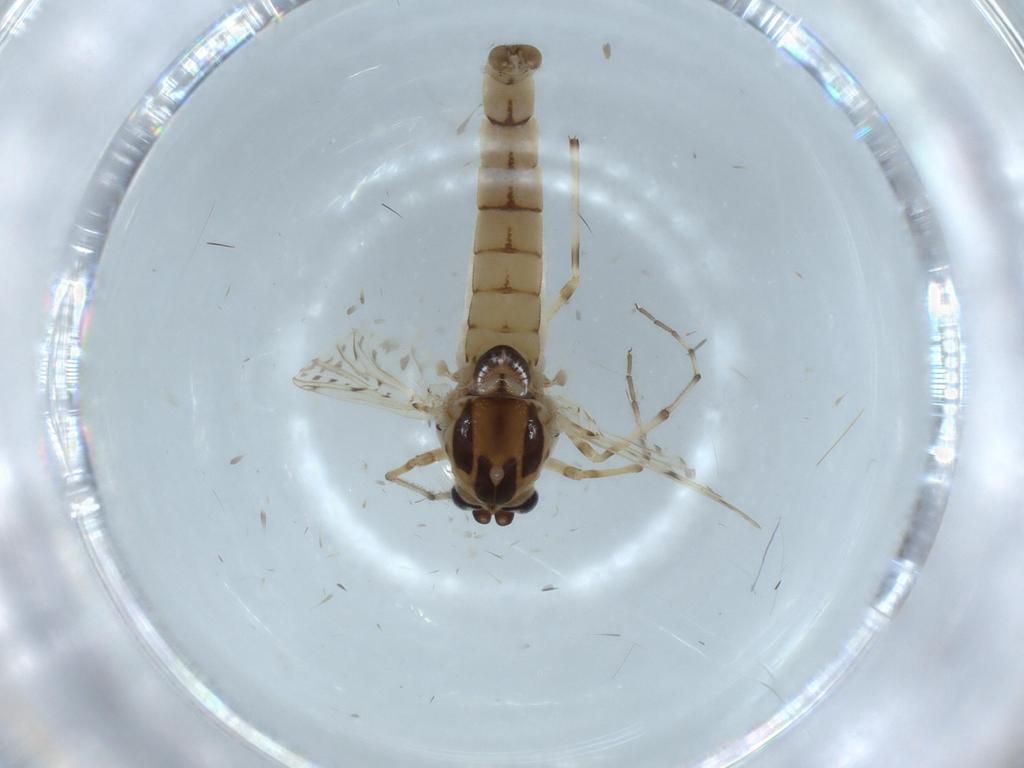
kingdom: Animalia
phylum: Arthropoda
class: Insecta
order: Diptera
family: Chironomidae
